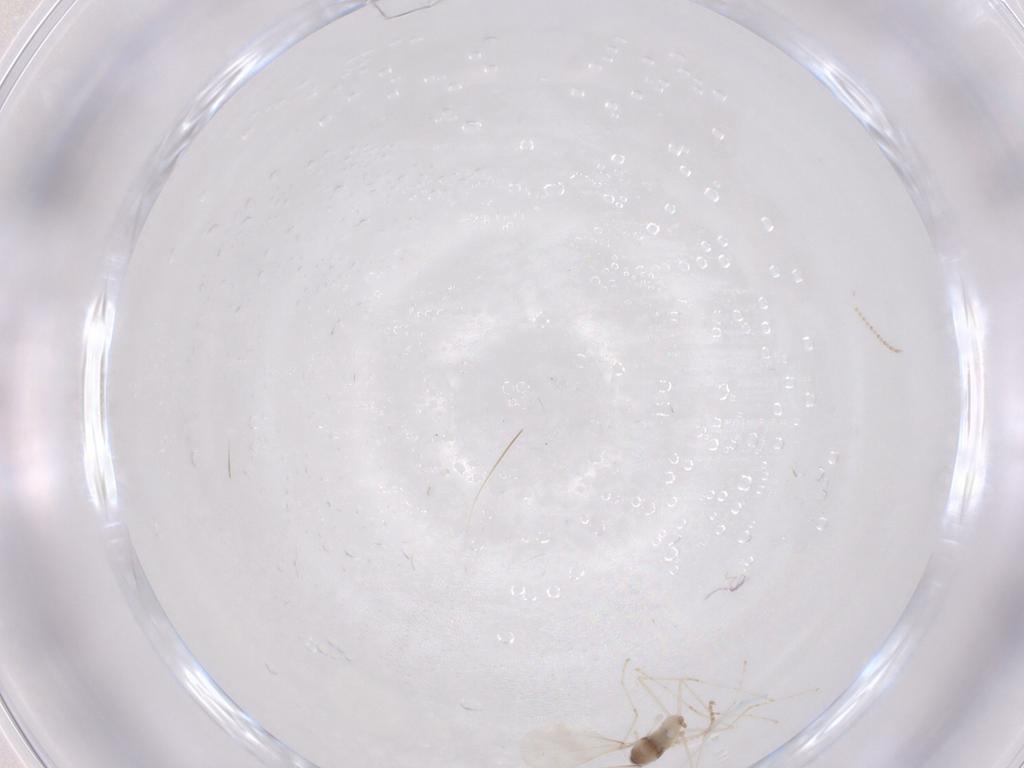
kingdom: Animalia
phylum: Arthropoda
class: Insecta
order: Diptera
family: Ceratopogonidae
